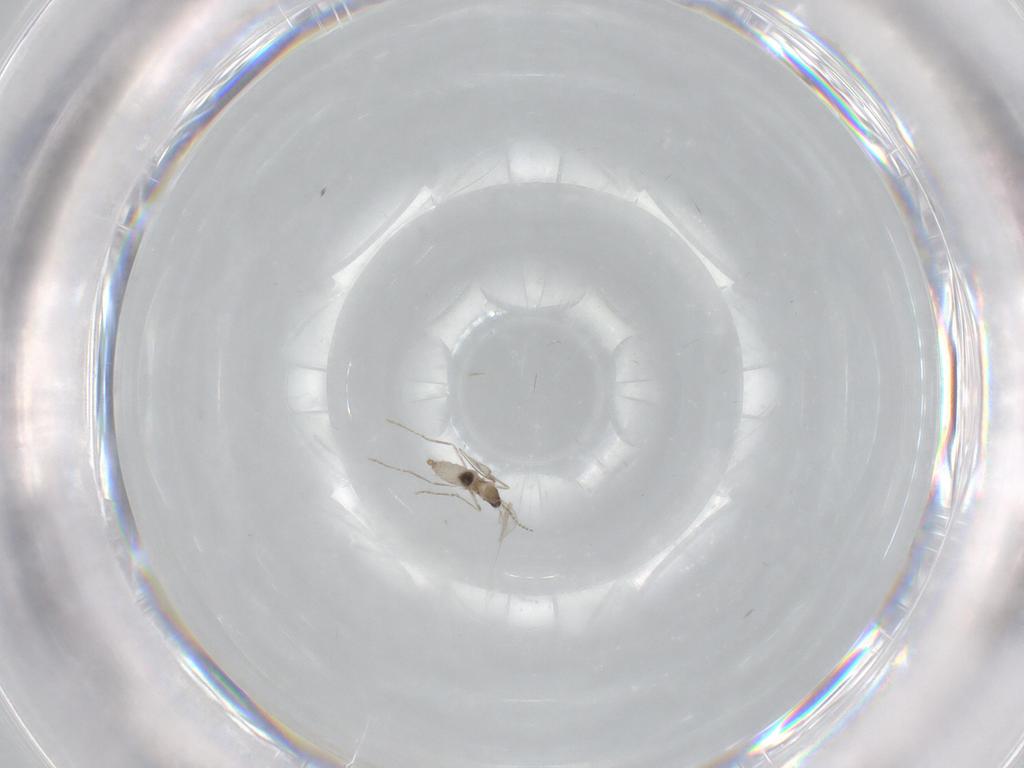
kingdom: Animalia
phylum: Arthropoda
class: Insecta
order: Diptera
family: Cecidomyiidae
